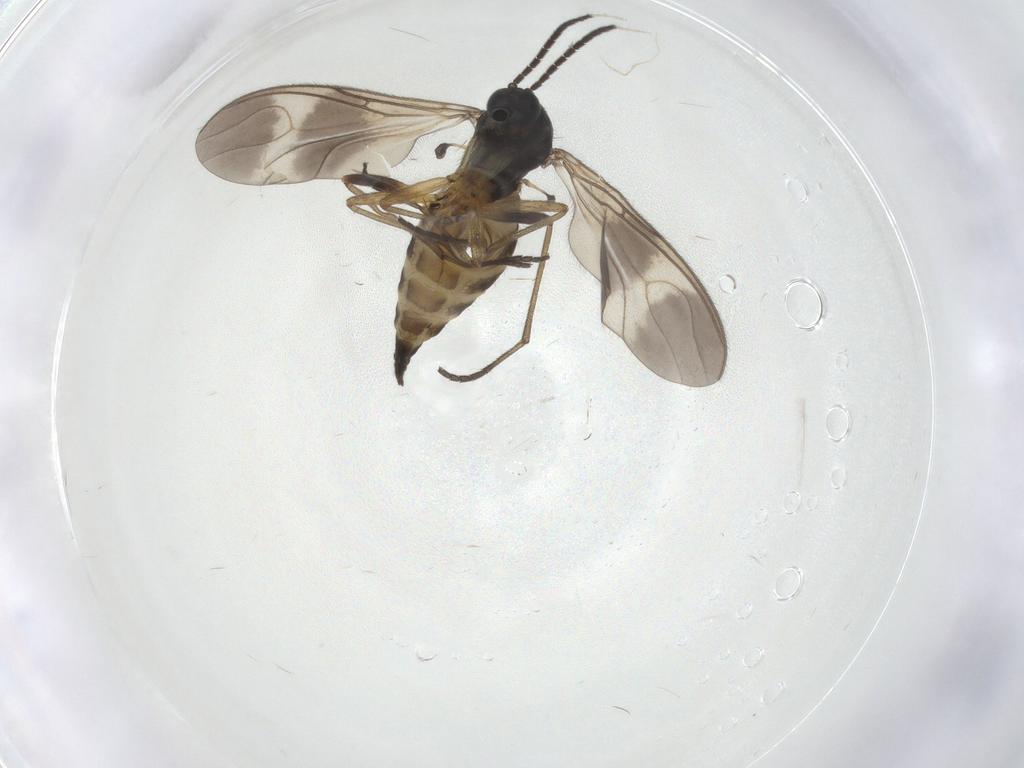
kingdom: Animalia
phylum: Arthropoda
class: Insecta
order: Diptera
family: Sciaridae
